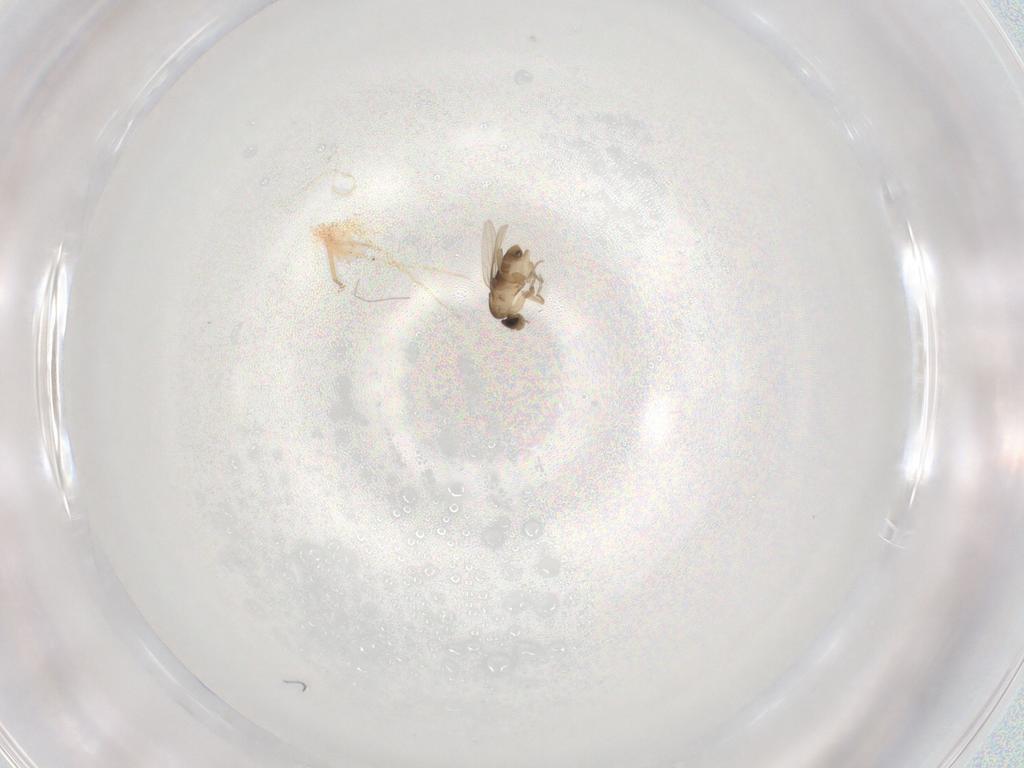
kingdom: Animalia
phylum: Arthropoda
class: Insecta
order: Diptera
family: Phoridae
